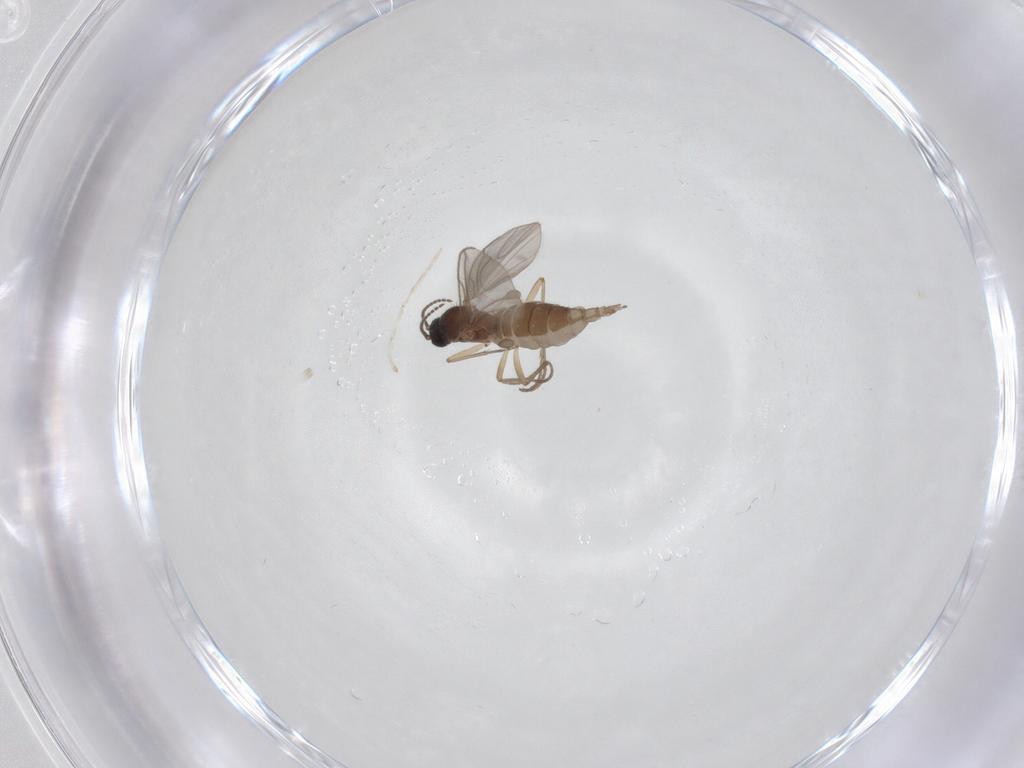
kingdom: Animalia
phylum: Arthropoda
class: Insecta
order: Diptera
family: Sciaridae
